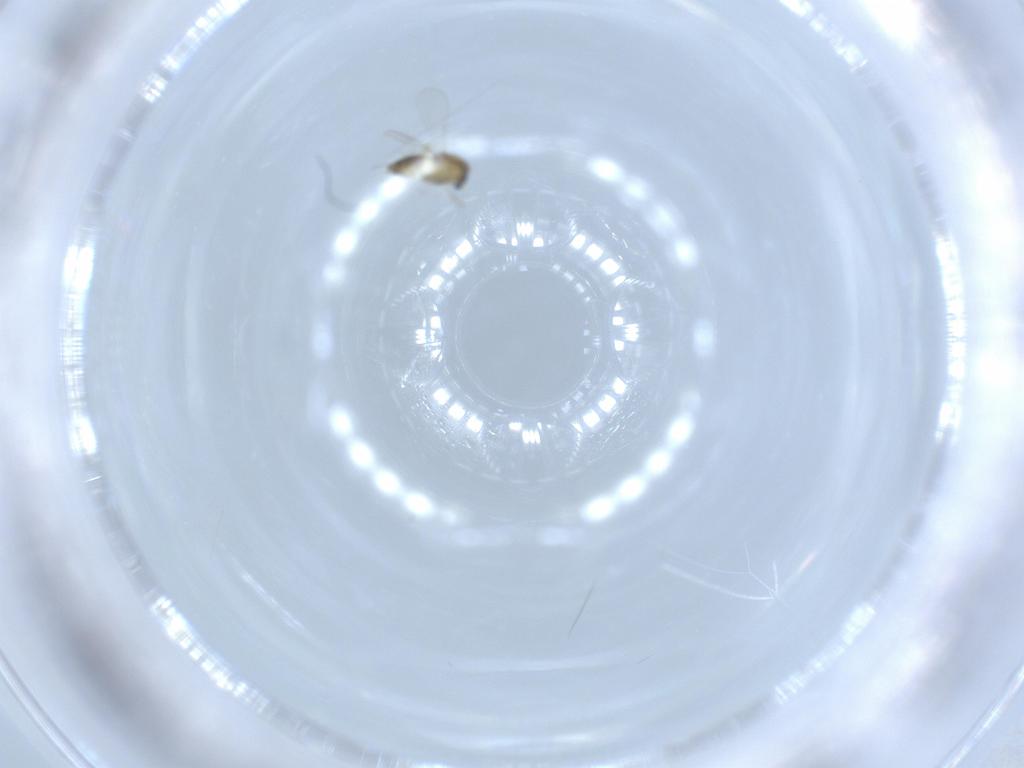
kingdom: Animalia
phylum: Arthropoda
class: Insecta
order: Diptera
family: Chironomidae
